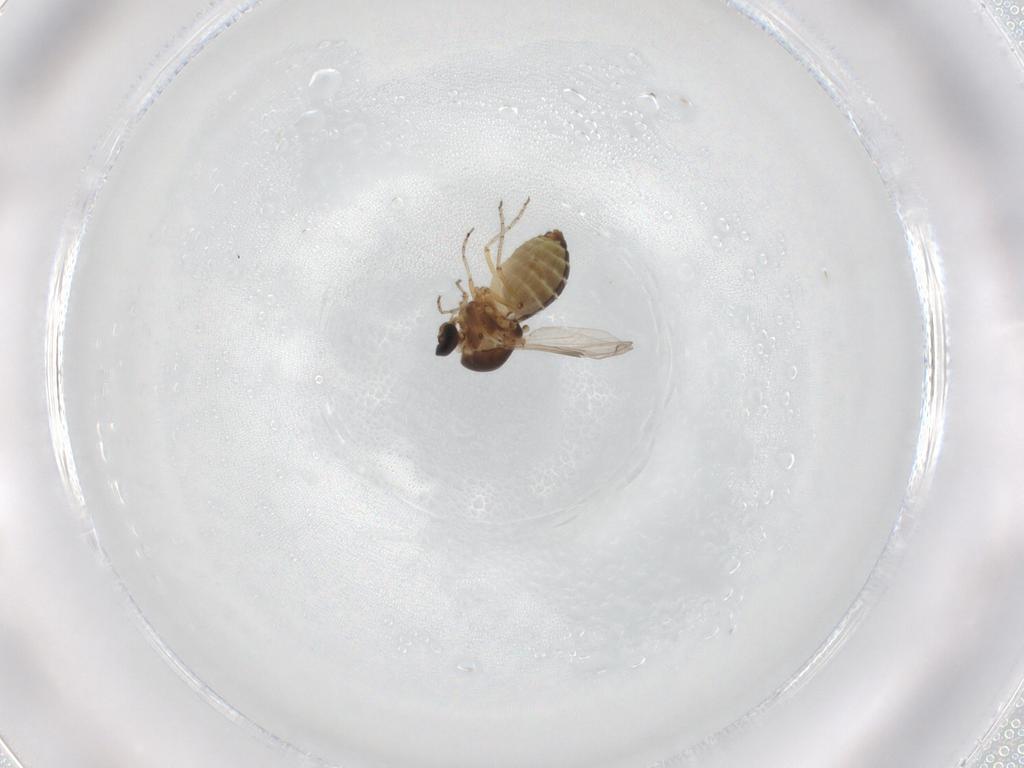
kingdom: Animalia
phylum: Arthropoda
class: Insecta
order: Diptera
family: Ceratopogonidae
